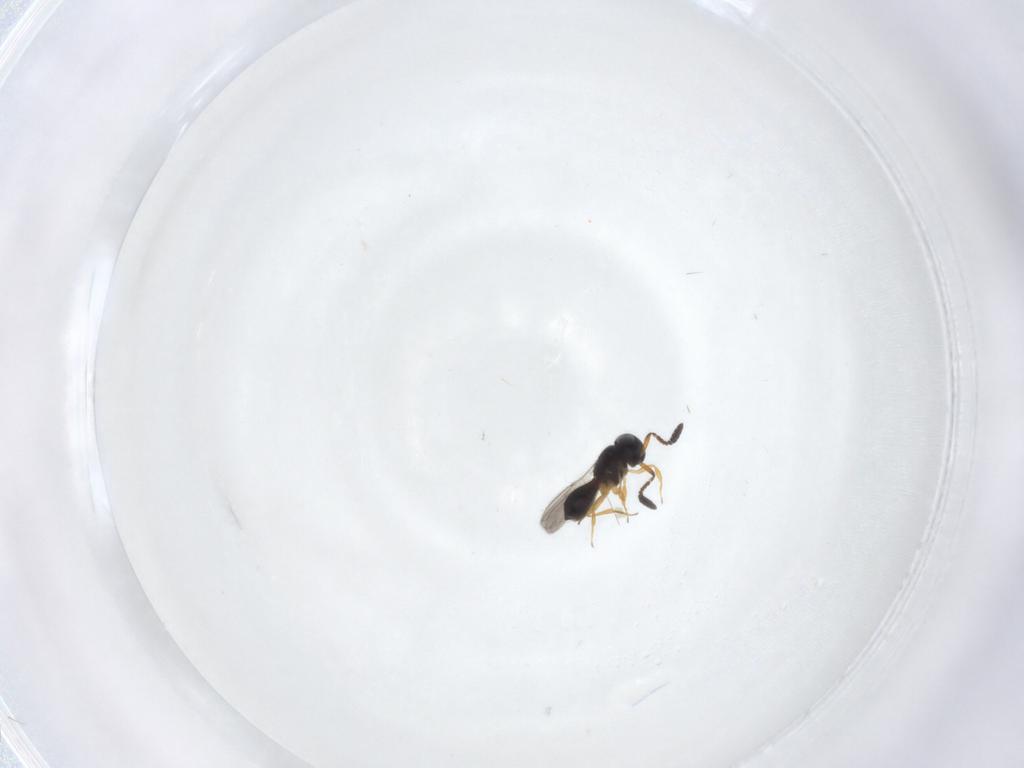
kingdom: Animalia
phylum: Arthropoda
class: Insecta
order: Hymenoptera
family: Scelionidae
